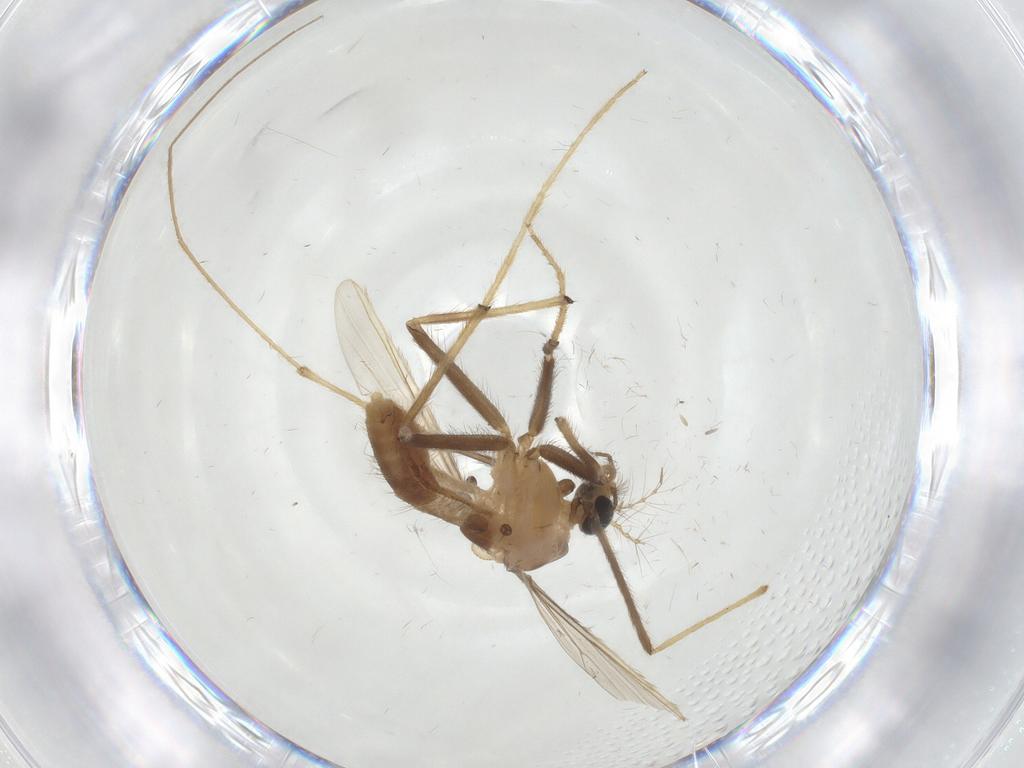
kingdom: Animalia
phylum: Arthropoda
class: Insecta
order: Diptera
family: Chironomidae
